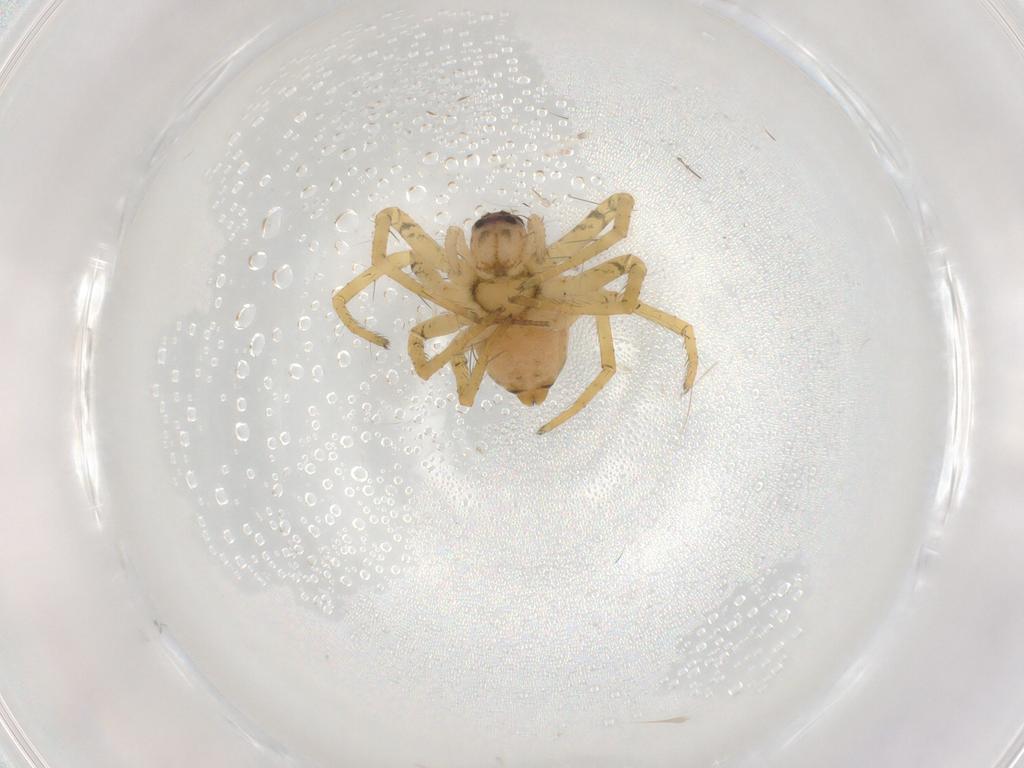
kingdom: Animalia
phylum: Arthropoda
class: Arachnida
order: Araneae
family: Pisauridae
